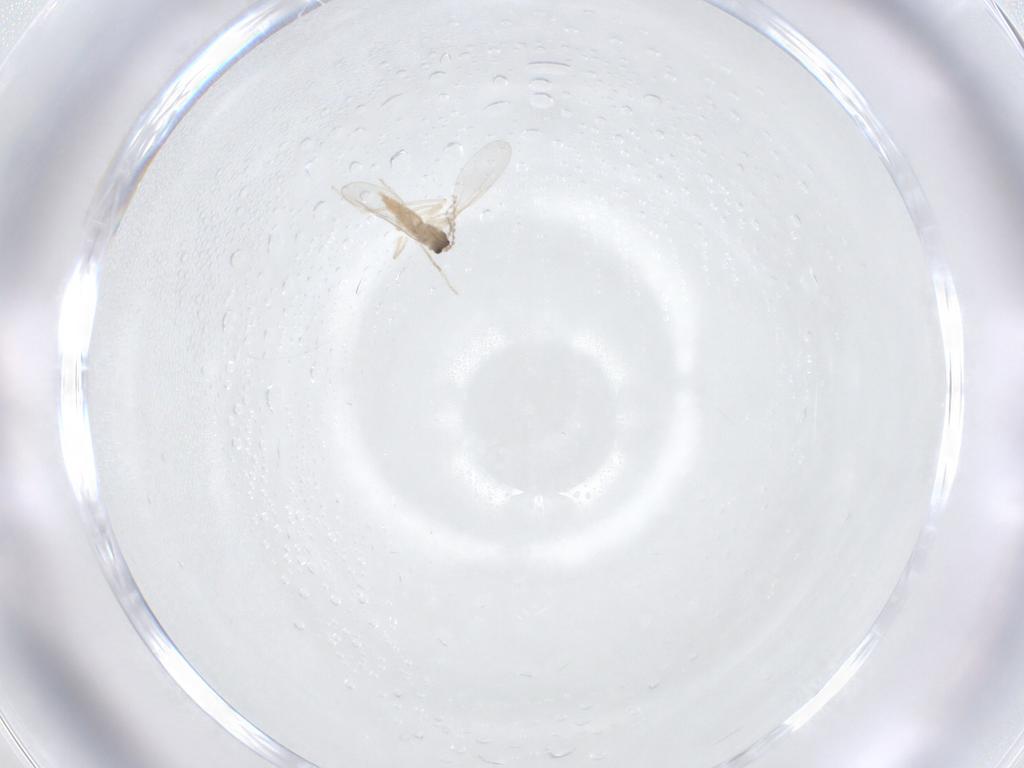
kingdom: Animalia
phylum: Arthropoda
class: Insecta
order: Diptera
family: Cecidomyiidae
